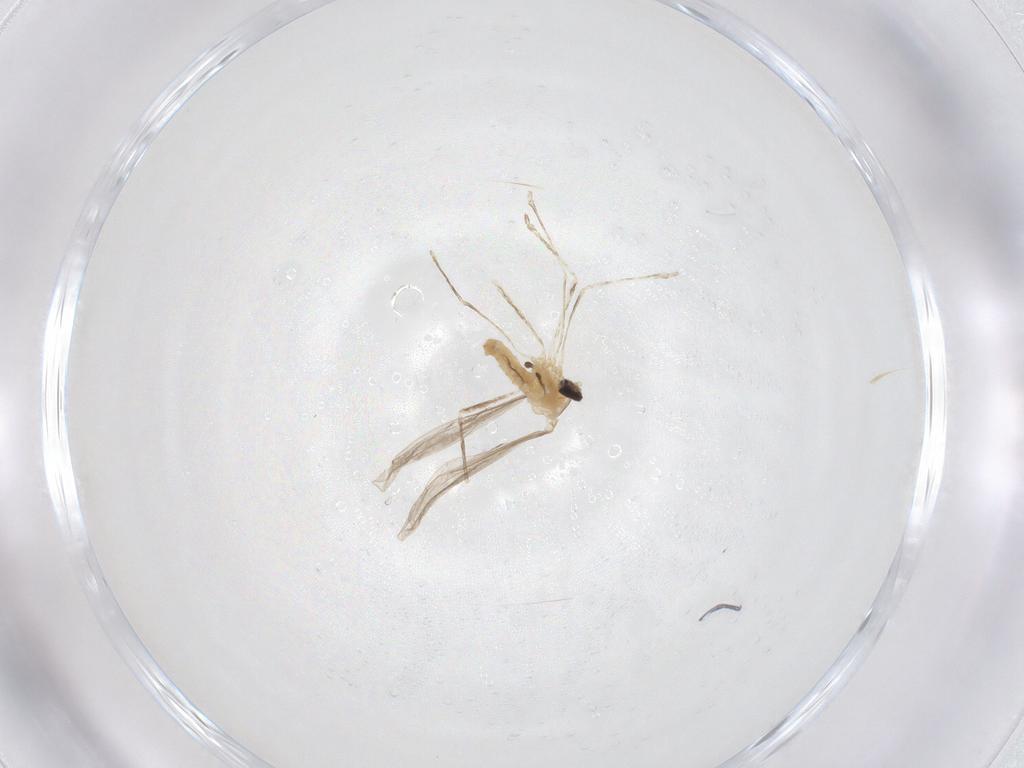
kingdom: Animalia
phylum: Arthropoda
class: Insecta
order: Diptera
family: Cecidomyiidae
